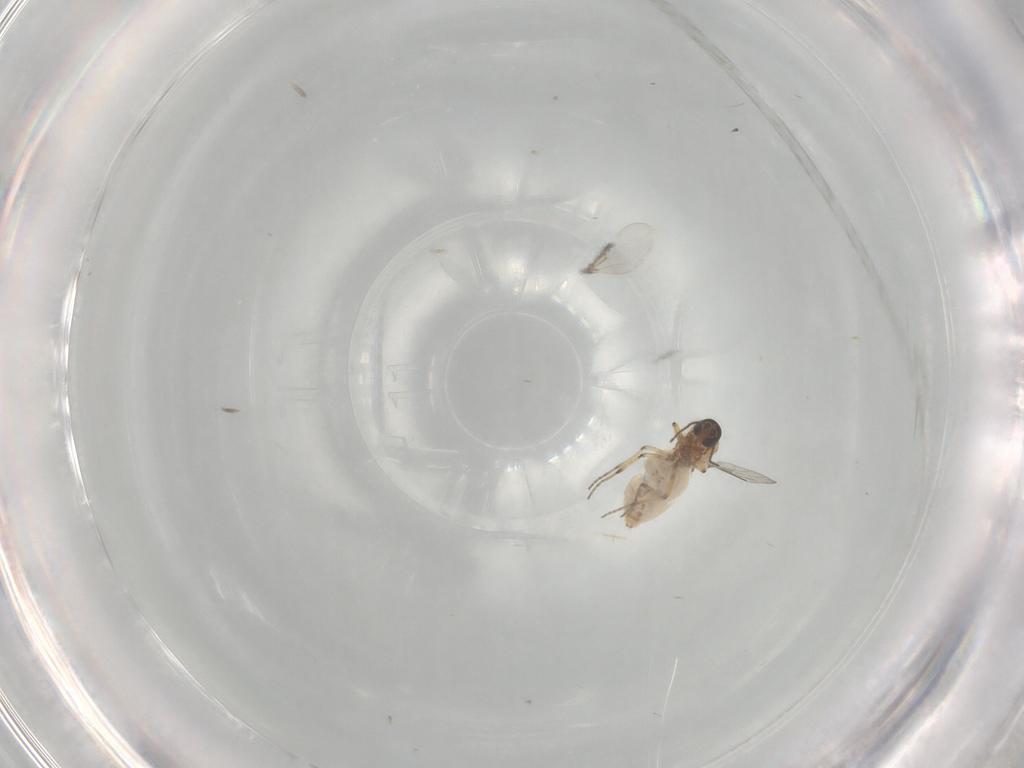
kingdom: Animalia
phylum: Arthropoda
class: Insecta
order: Diptera
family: Ceratopogonidae
